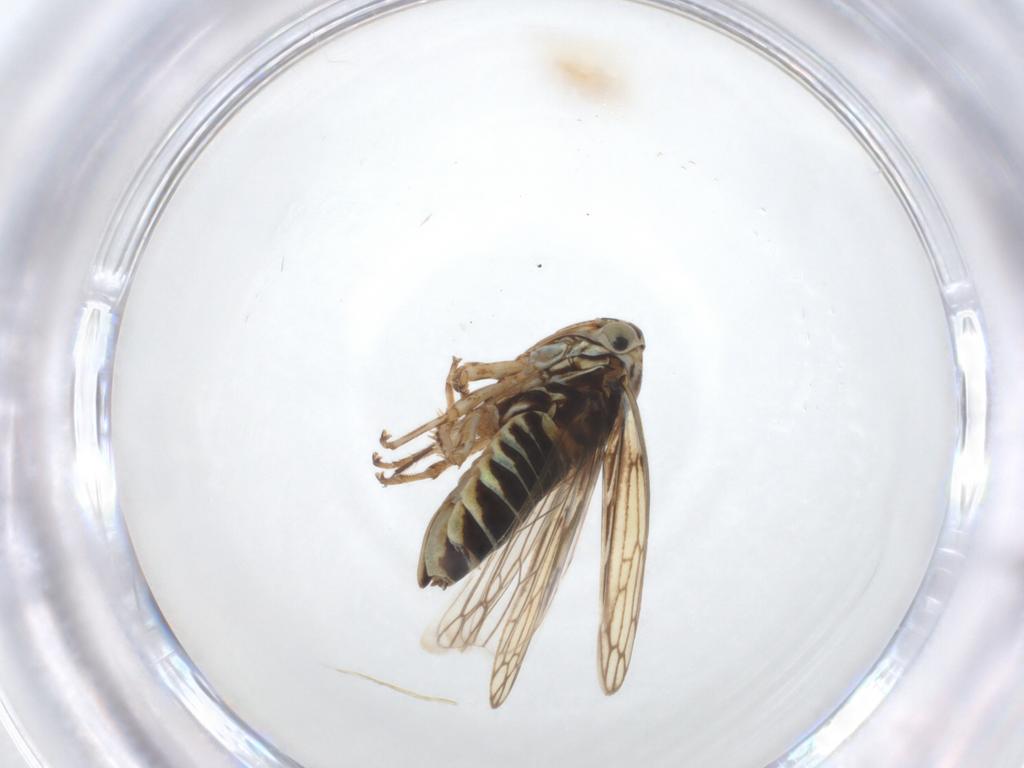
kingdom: Animalia
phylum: Arthropoda
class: Insecta
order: Hemiptera
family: Cicadellidae
